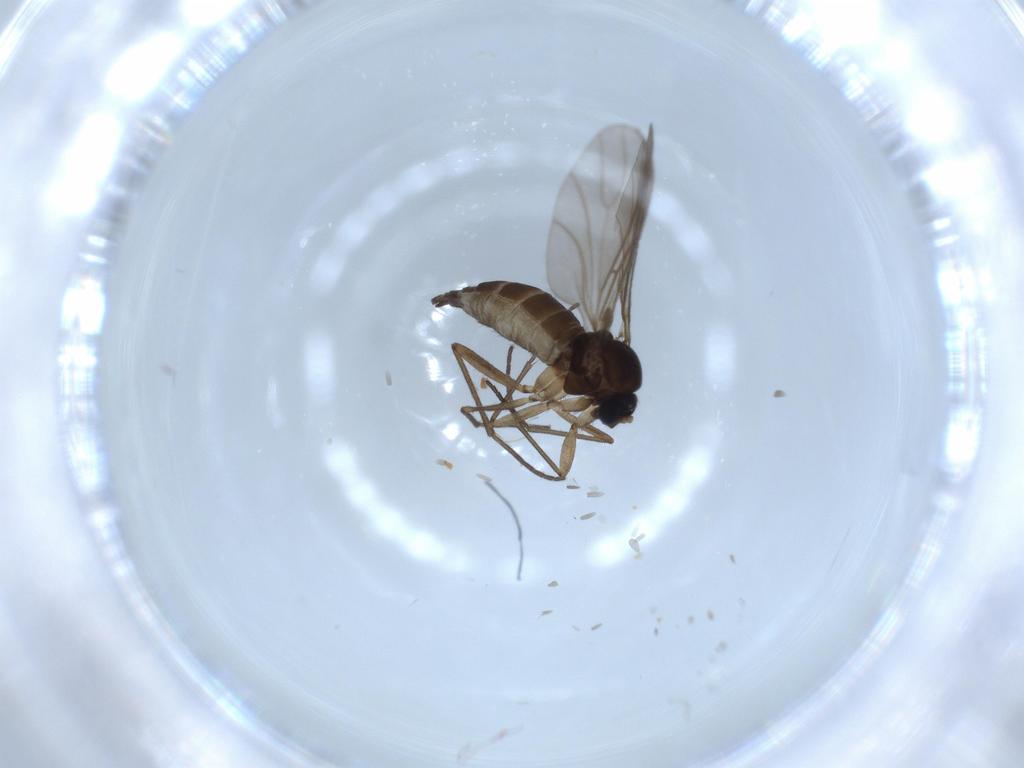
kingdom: Animalia
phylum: Arthropoda
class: Insecta
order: Diptera
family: Sciaridae
